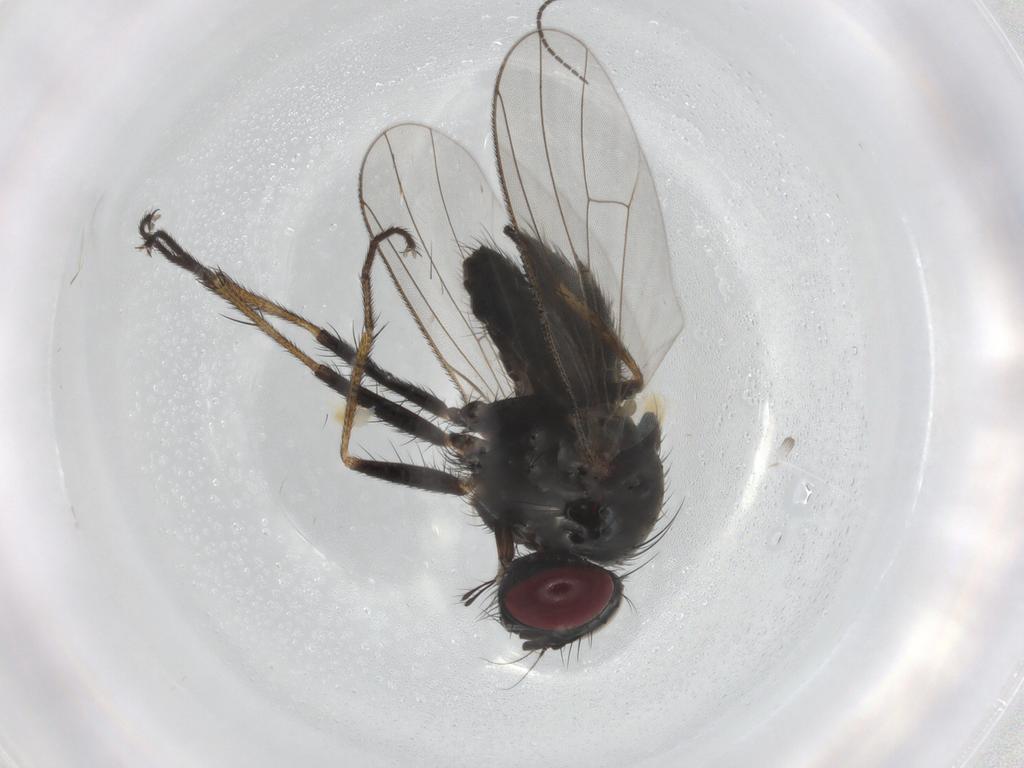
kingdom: Animalia
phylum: Arthropoda
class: Insecta
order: Diptera
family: Muscidae
